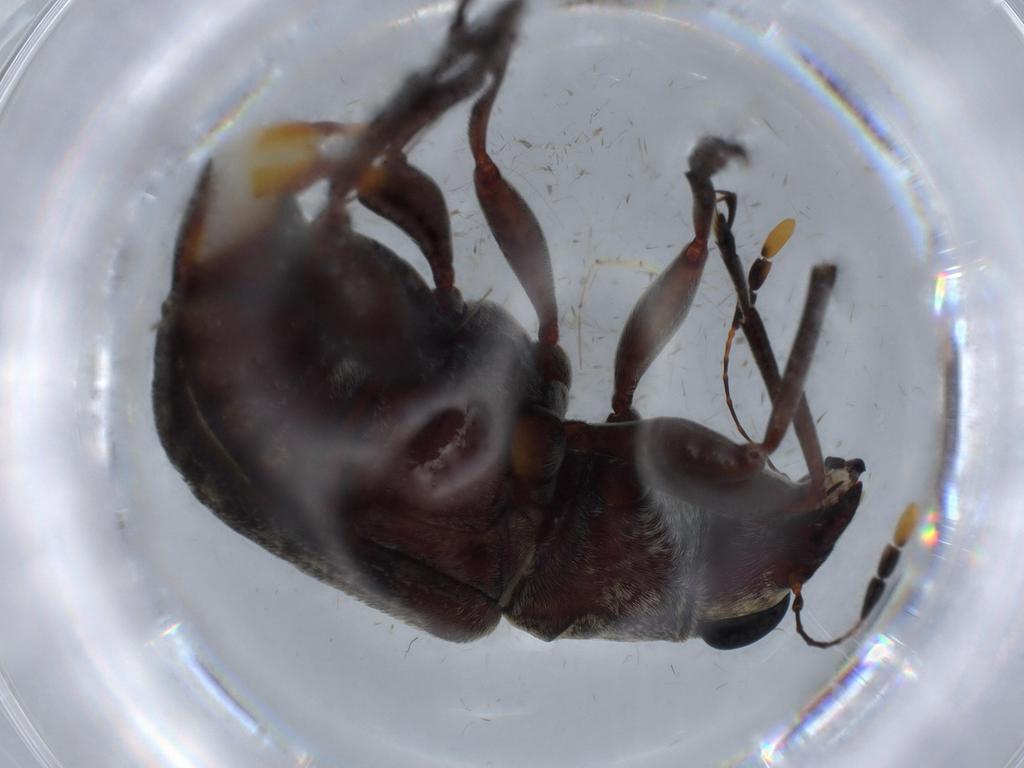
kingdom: Animalia
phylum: Arthropoda
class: Insecta
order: Coleoptera
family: Anthribidae
